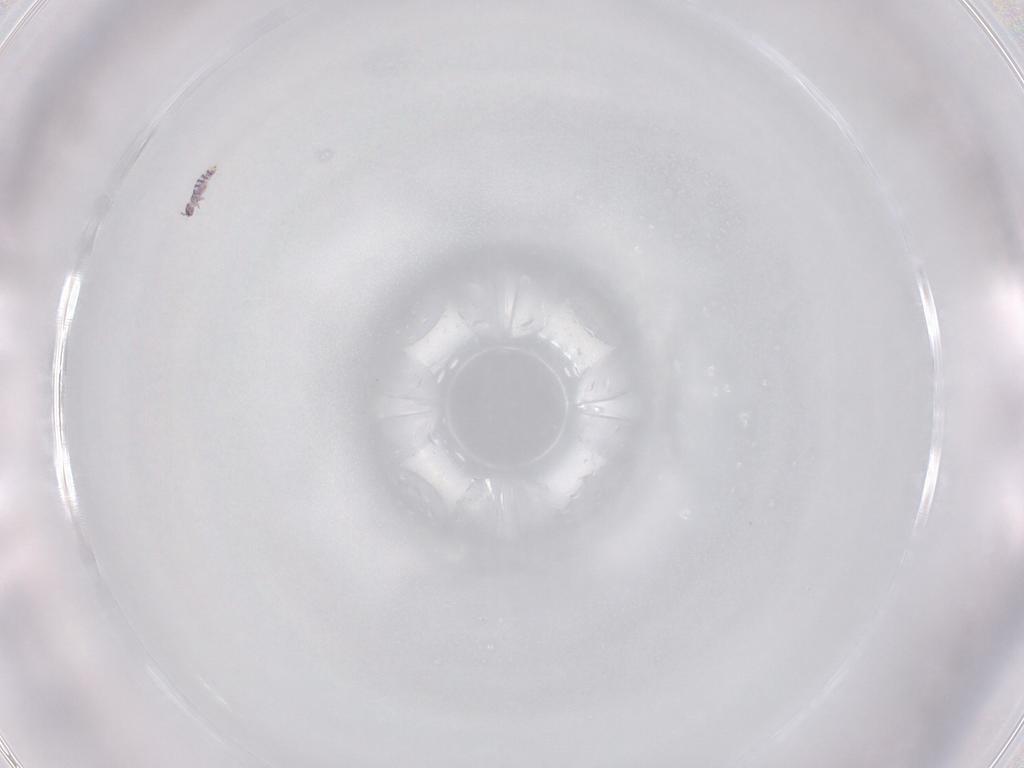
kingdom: Animalia
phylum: Arthropoda
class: Collembola
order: Entomobryomorpha
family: Isotomidae
